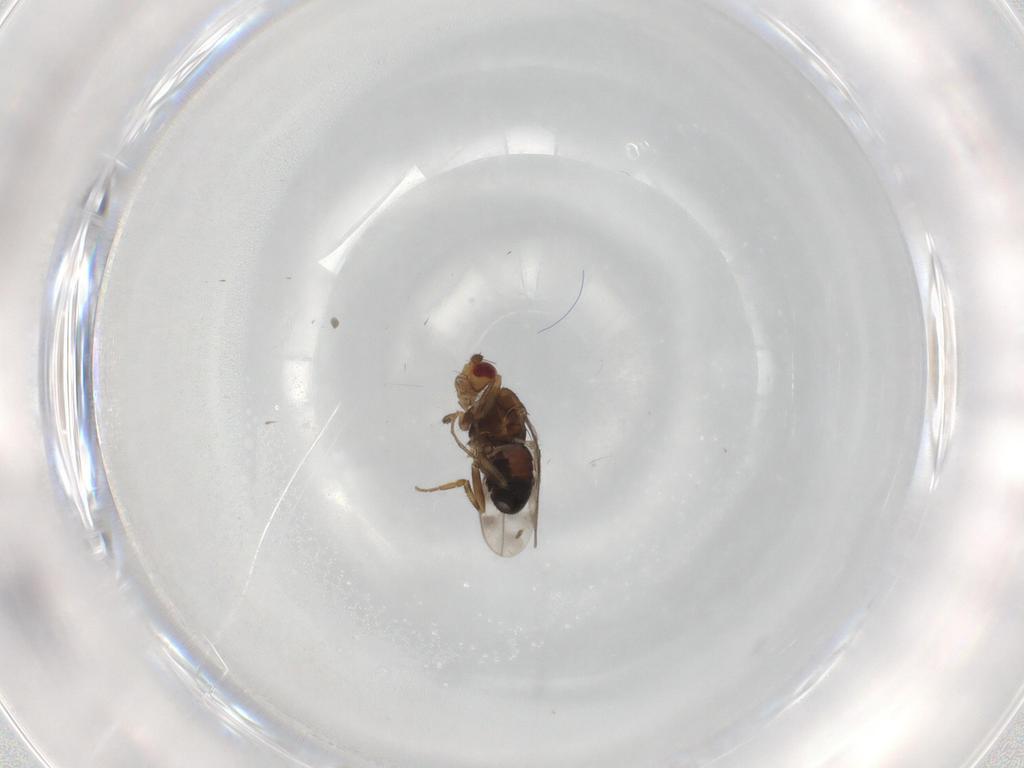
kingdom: Animalia
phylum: Arthropoda
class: Insecta
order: Diptera
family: Sphaeroceridae
